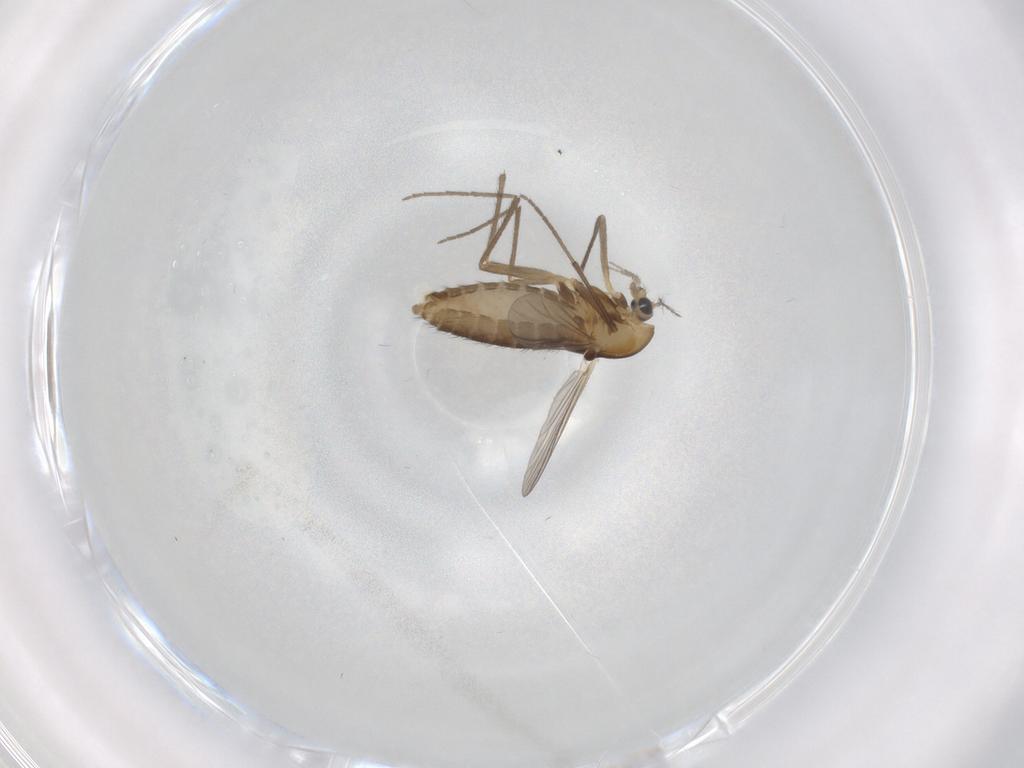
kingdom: Animalia
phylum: Arthropoda
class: Insecta
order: Diptera
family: Chironomidae
